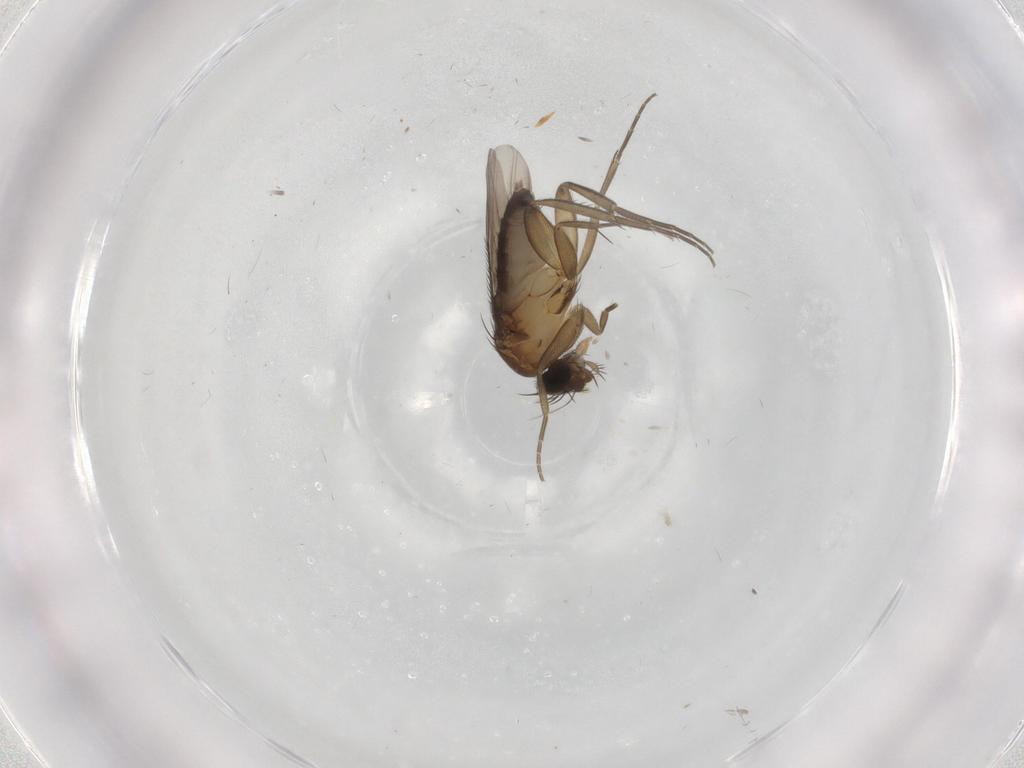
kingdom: Animalia
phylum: Arthropoda
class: Insecta
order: Diptera
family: Phoridae
